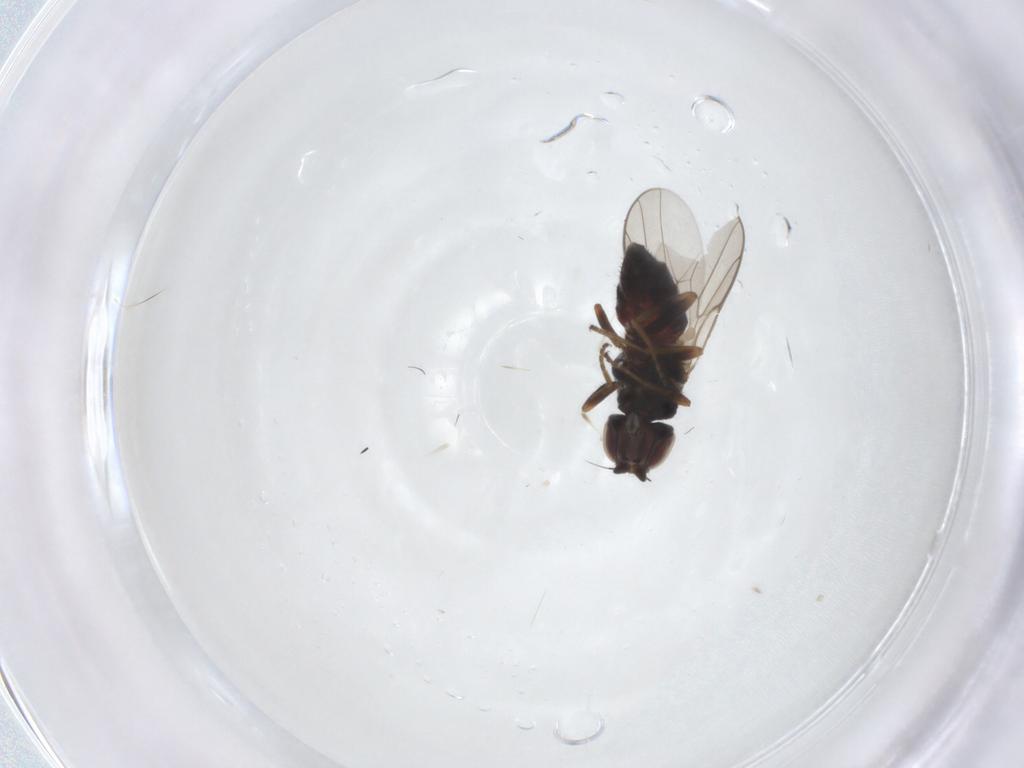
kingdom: Animalia
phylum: Arthropoda
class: Insecta
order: Diptera
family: Chloropidae
